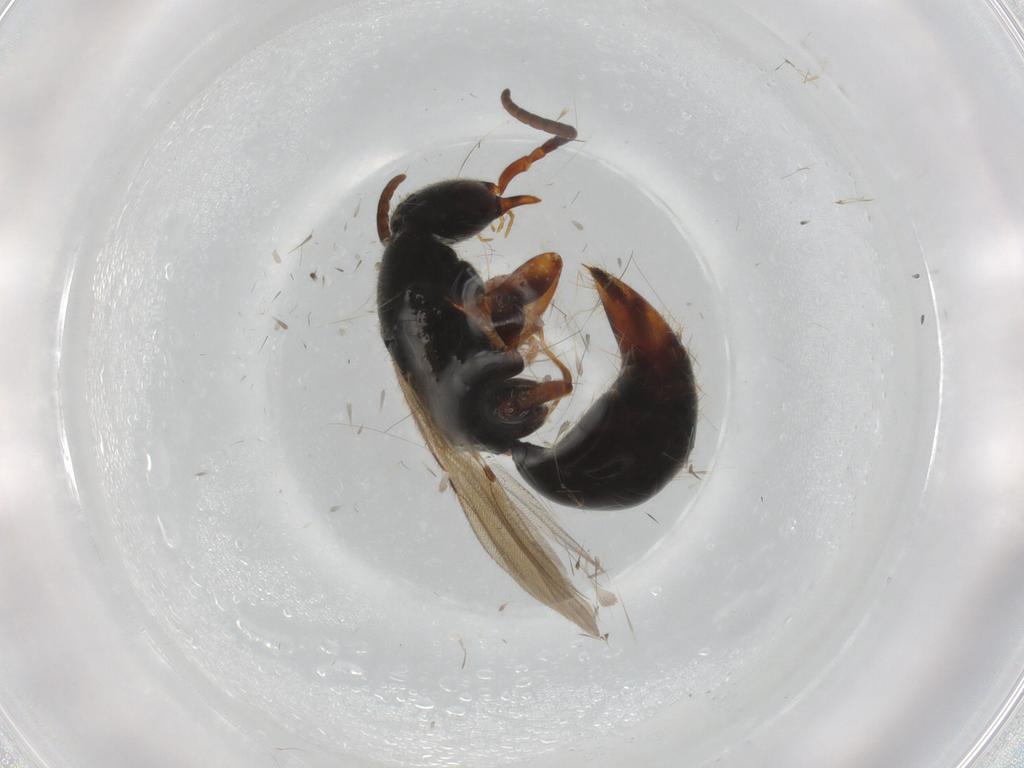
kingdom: Animalia
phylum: Arthropoda
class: Insecta
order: Hymenoptera
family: Bethylidae
